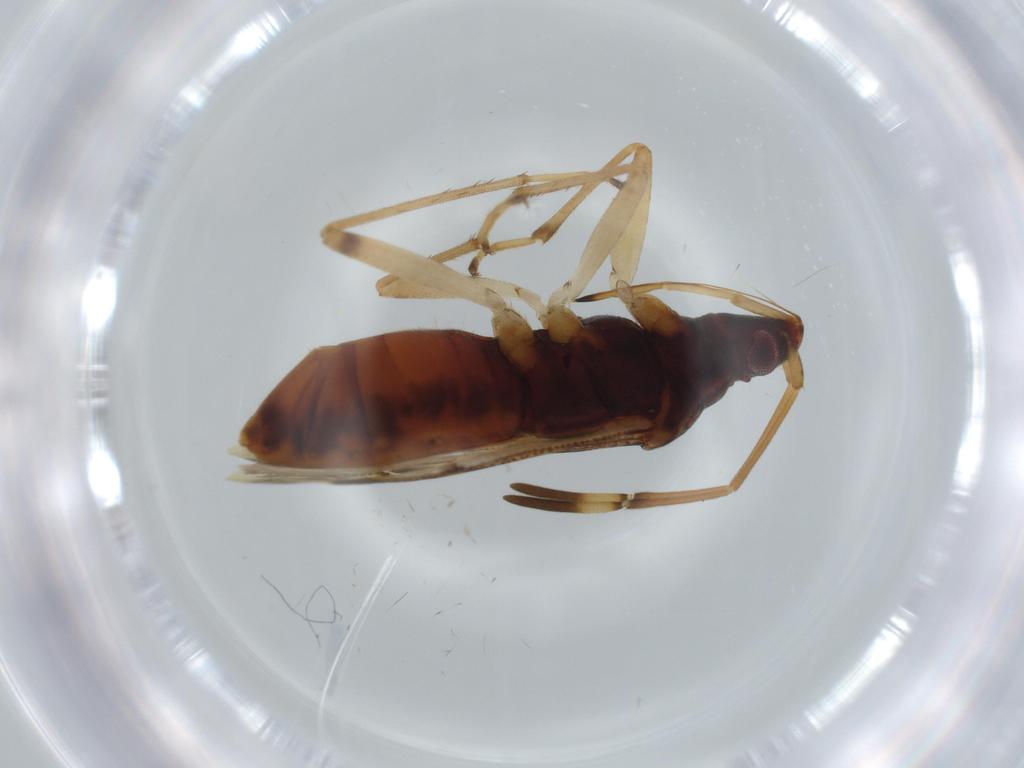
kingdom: Animalia
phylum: Arthropoda
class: Insecta
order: Hemiptera
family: Rhyparochromidae
